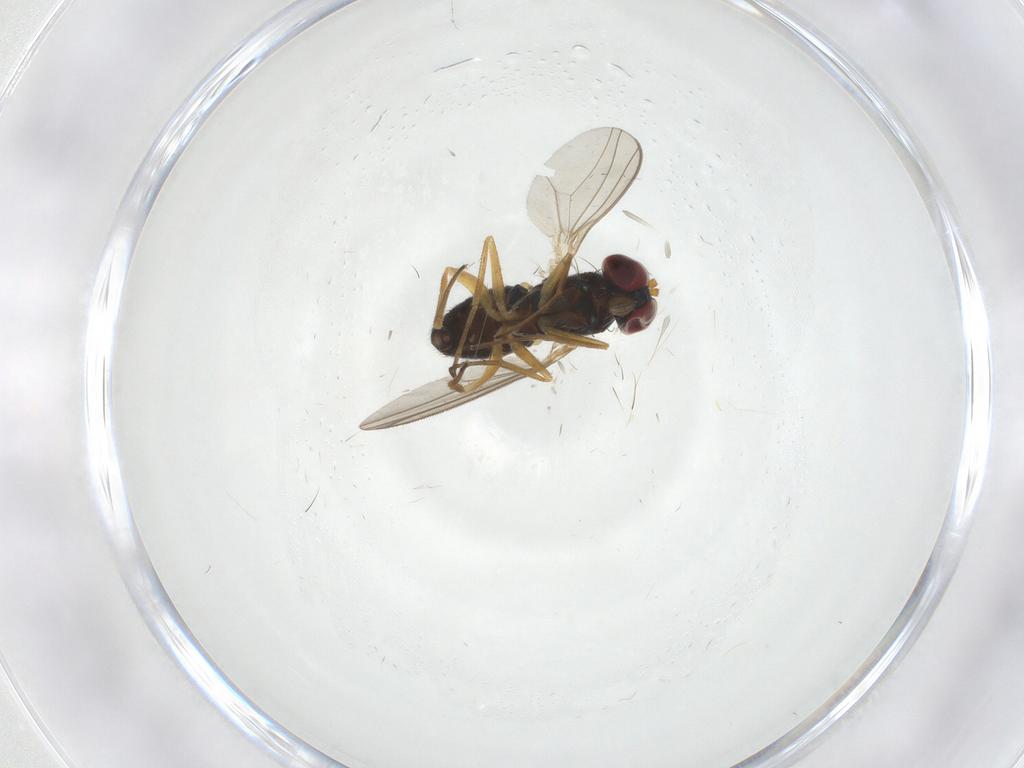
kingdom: Animalia
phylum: Arthropoda
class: Insecta
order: Diptera
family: Dolichopodidae
